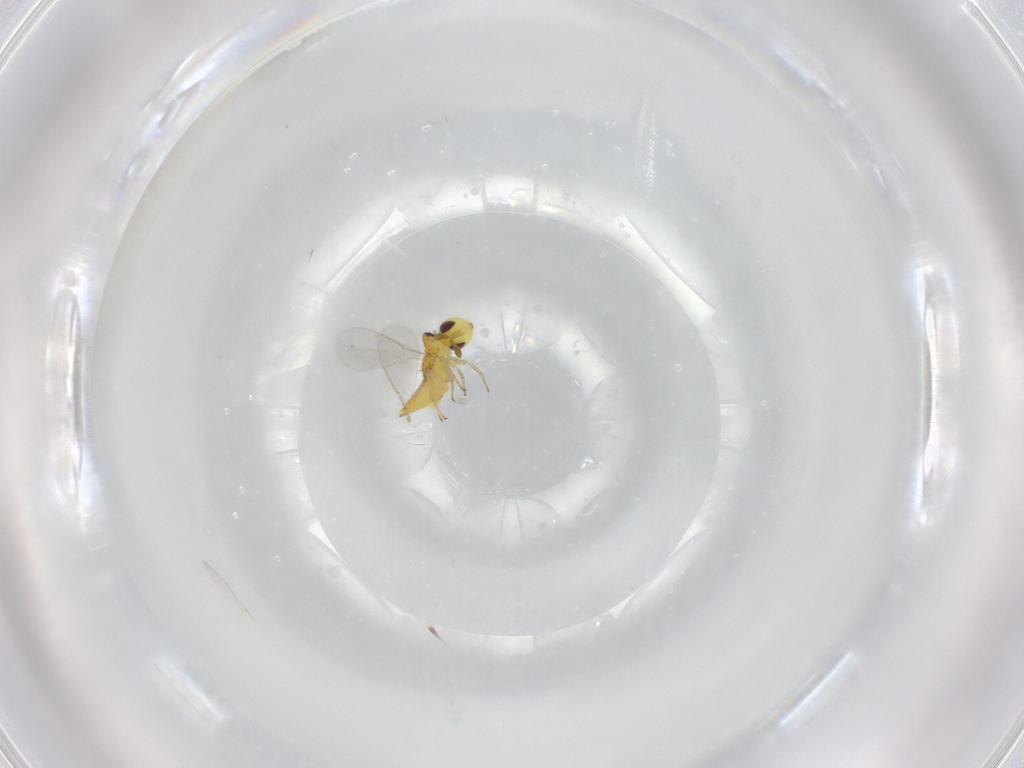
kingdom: Animalia
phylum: Arthropoda
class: Insecta
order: Hymenoptera
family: Aphelinidae
